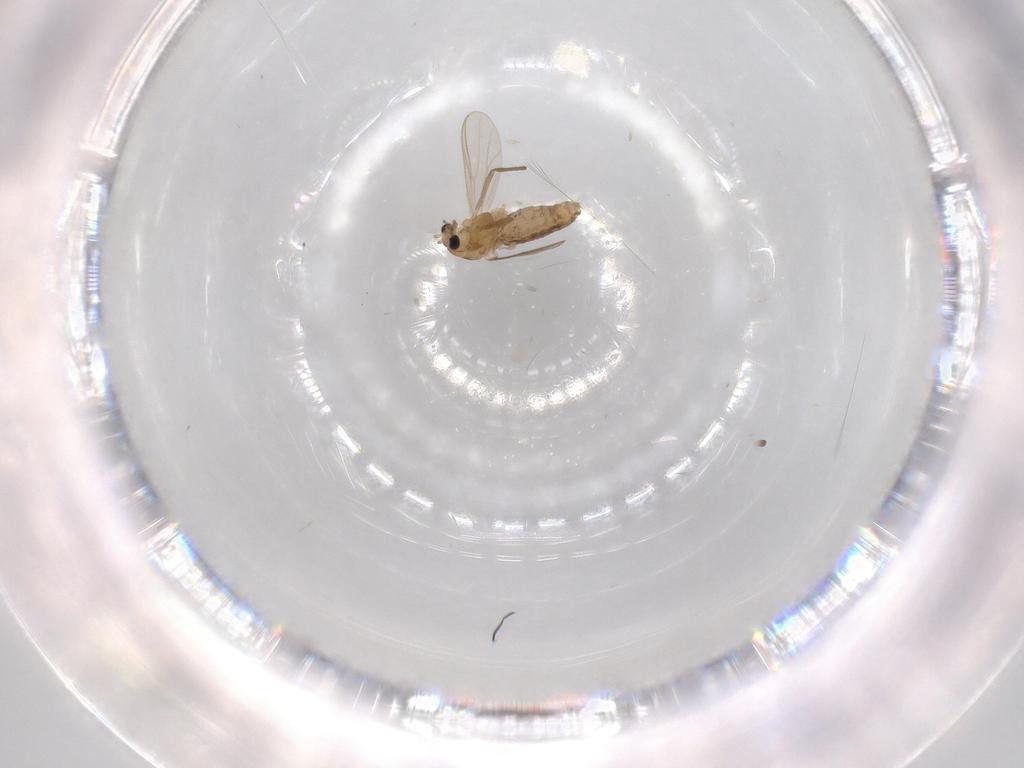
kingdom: Animalia
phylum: Arthropoda
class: Insecta
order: Diptera
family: Chironomidae
